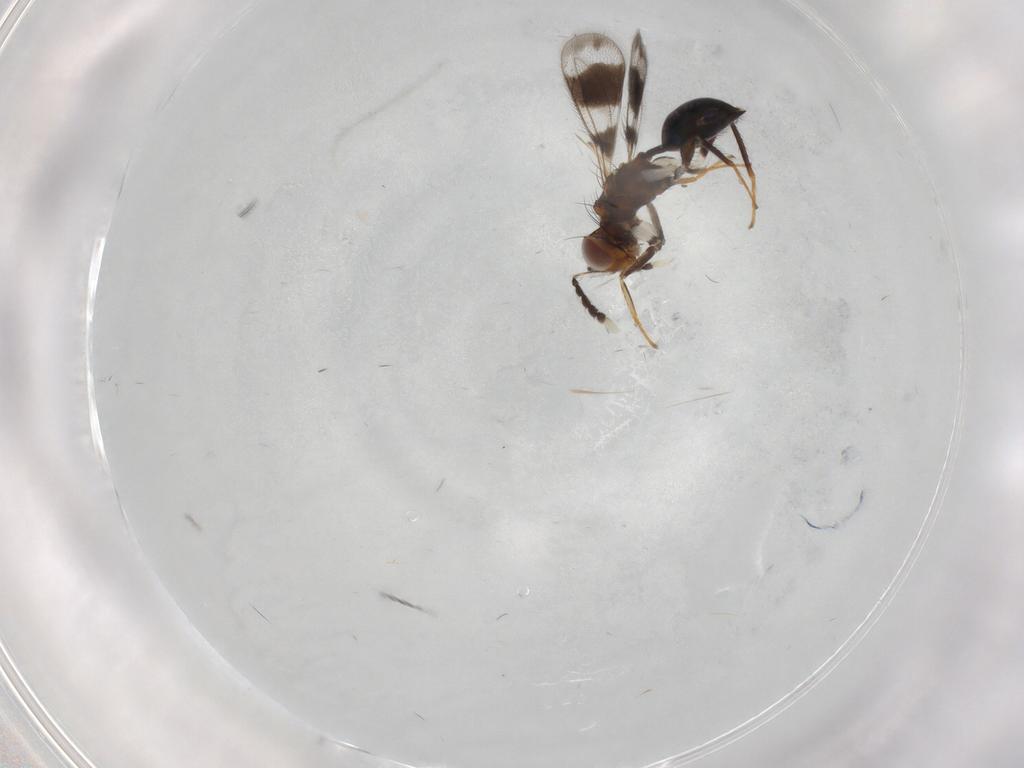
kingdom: Animalia
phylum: Arthropoda
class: Insecta
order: Hymenoptera
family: Eulophidae
